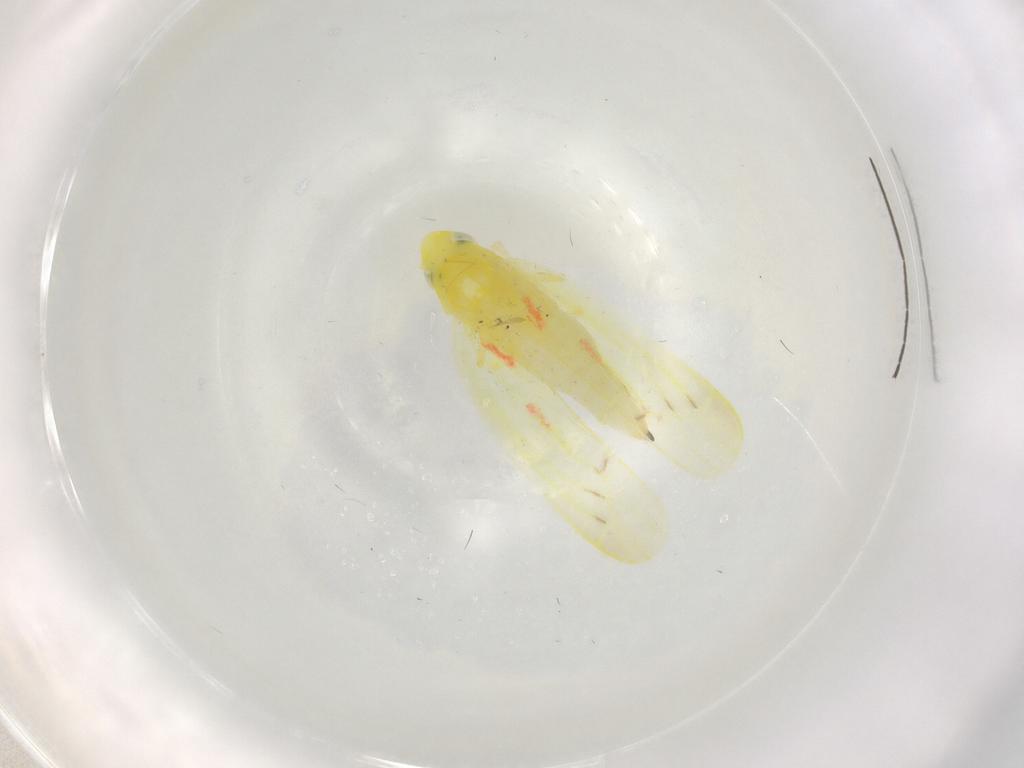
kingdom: Animalia
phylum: Arthropoda
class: Insecta
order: Hemiptera
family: Cicadellidae
